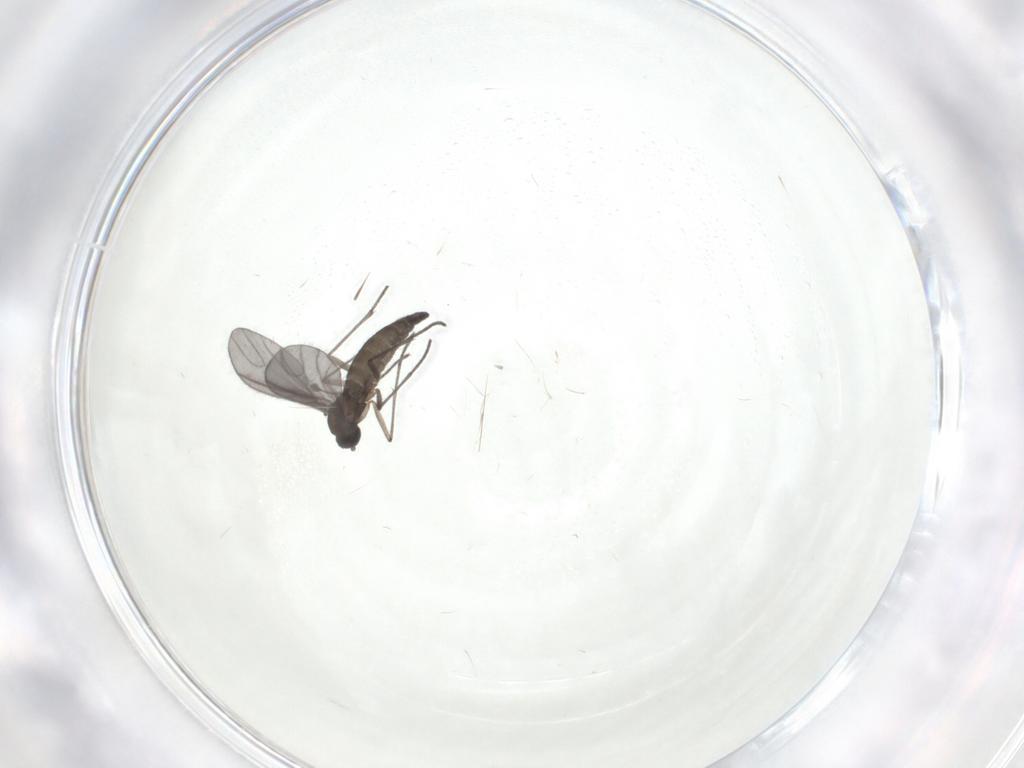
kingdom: Animalia
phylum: Arthropoda
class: Insecta
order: Diptera
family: Sciaridae
